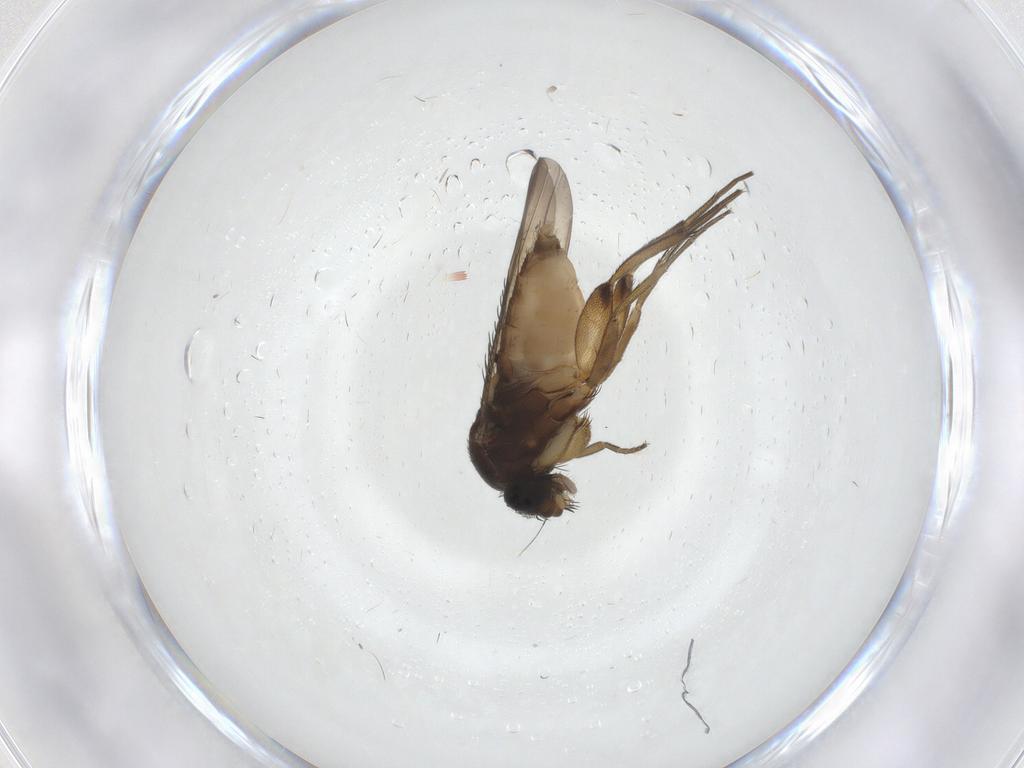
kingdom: Animalia
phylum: Arthropoda
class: Insecta
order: Diptera
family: Phoridae
